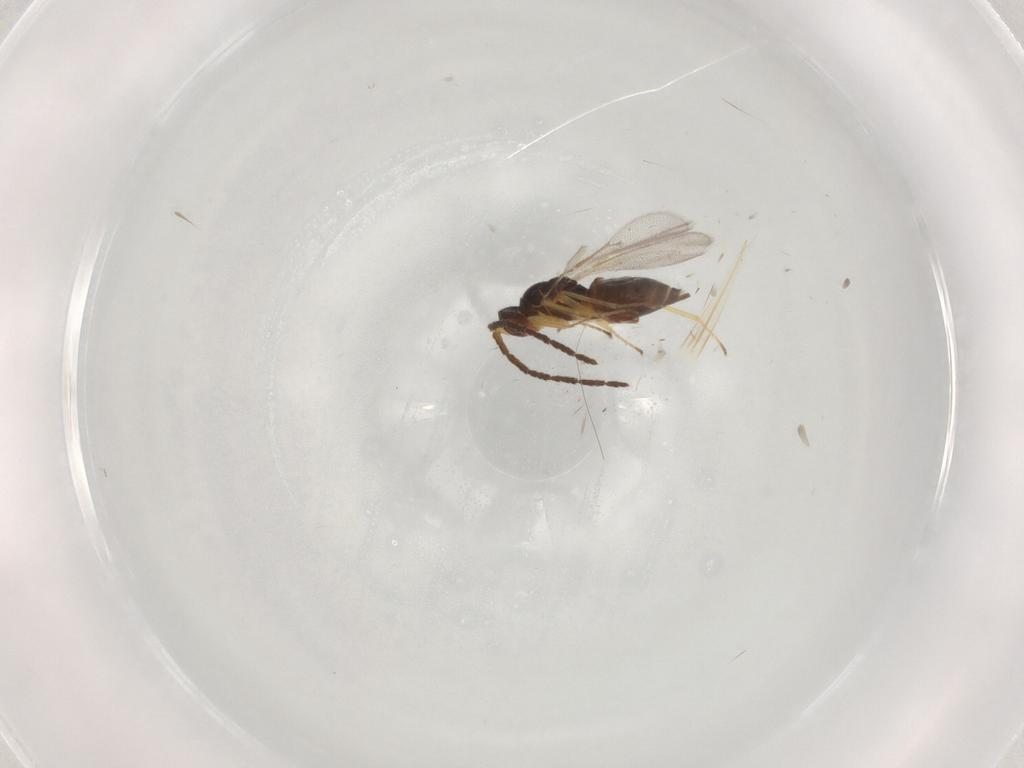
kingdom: Animalia
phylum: Arthropoda
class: Insecta
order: Hymenoptera
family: Eulophidae
